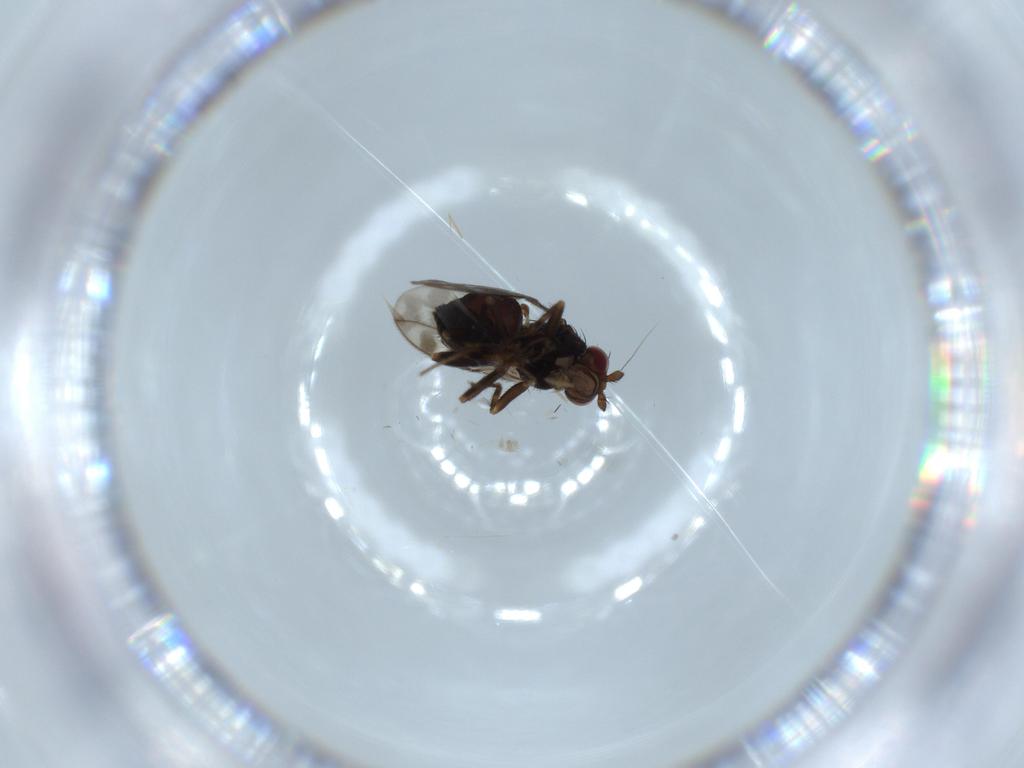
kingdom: Animalia
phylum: Arthropoda
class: Insecta
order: Diptera
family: Sphaeroceridae
